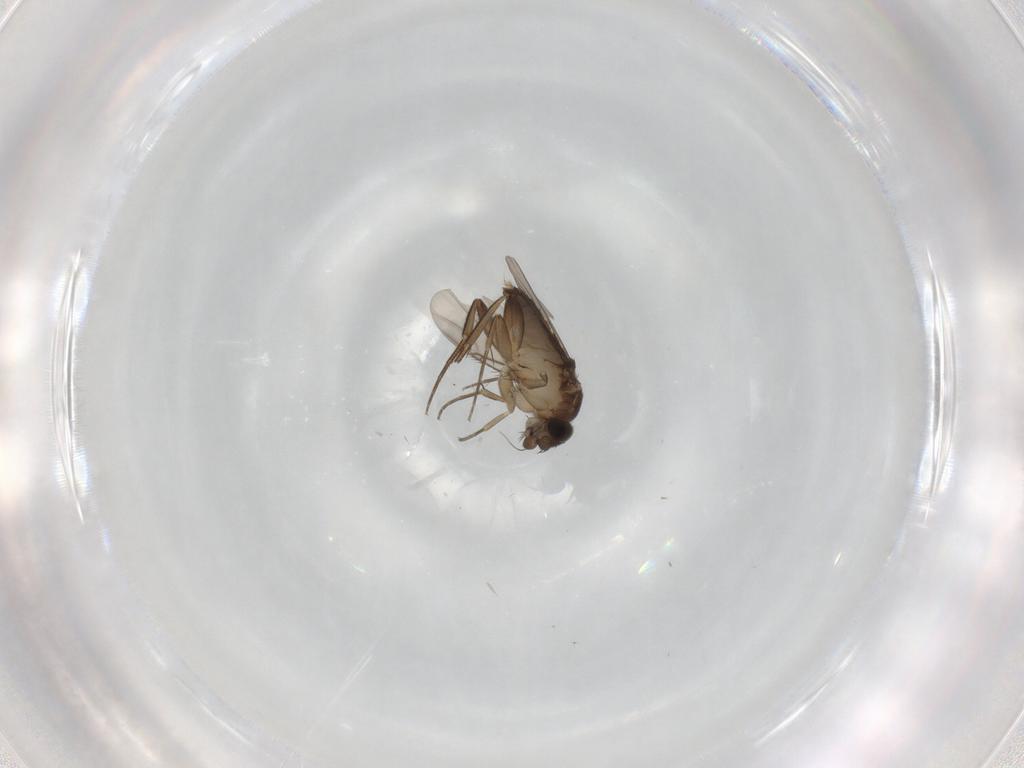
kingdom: Animalia
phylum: Arthropoda
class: Insecta
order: Diptera
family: Phoridae
